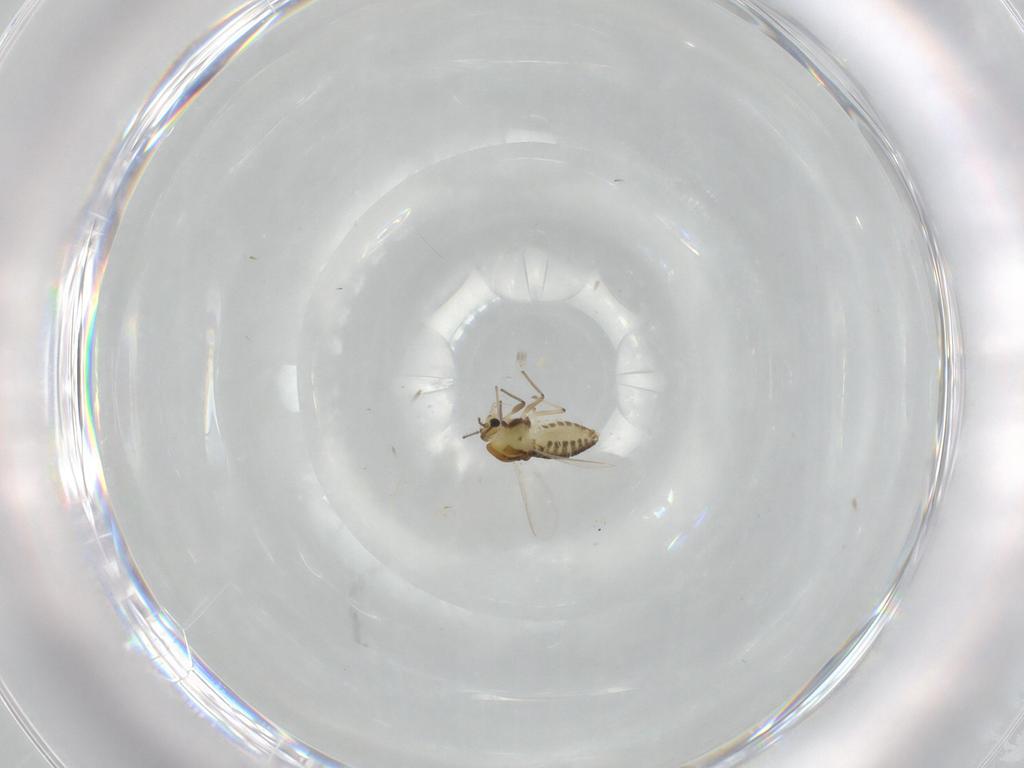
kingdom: Animalia
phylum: Arthropoda
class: Insecta
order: Diptera
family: Chironomidae
